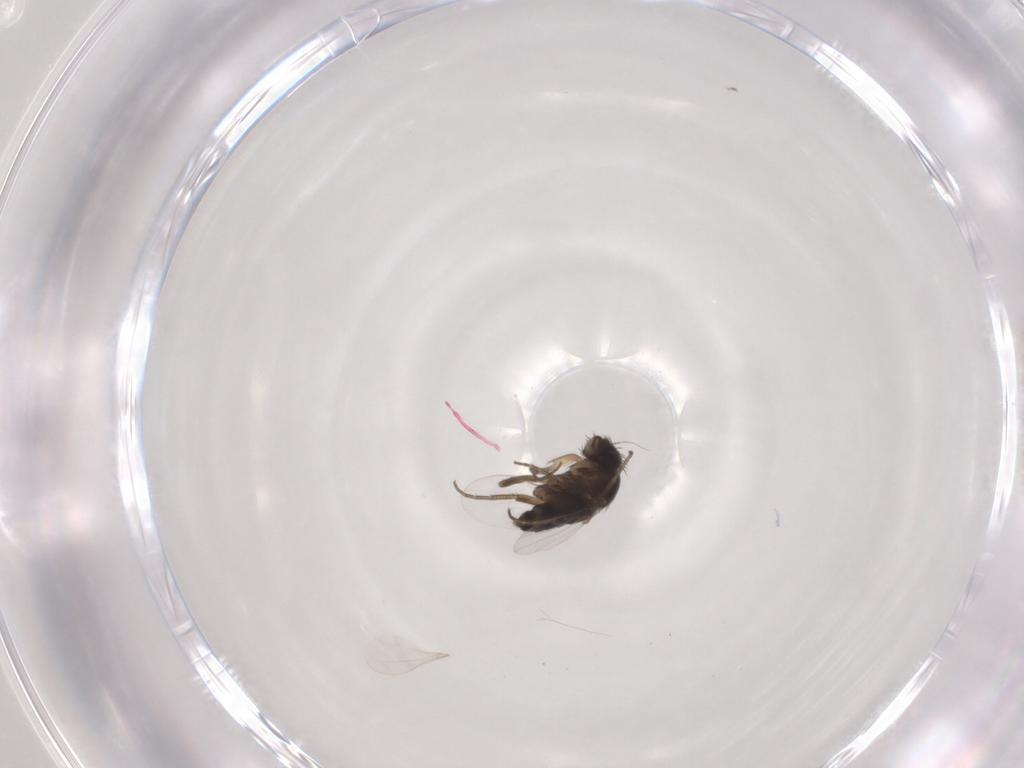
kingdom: Animalia
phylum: Arthropoda
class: Insecta
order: Diptera
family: Phoridae
